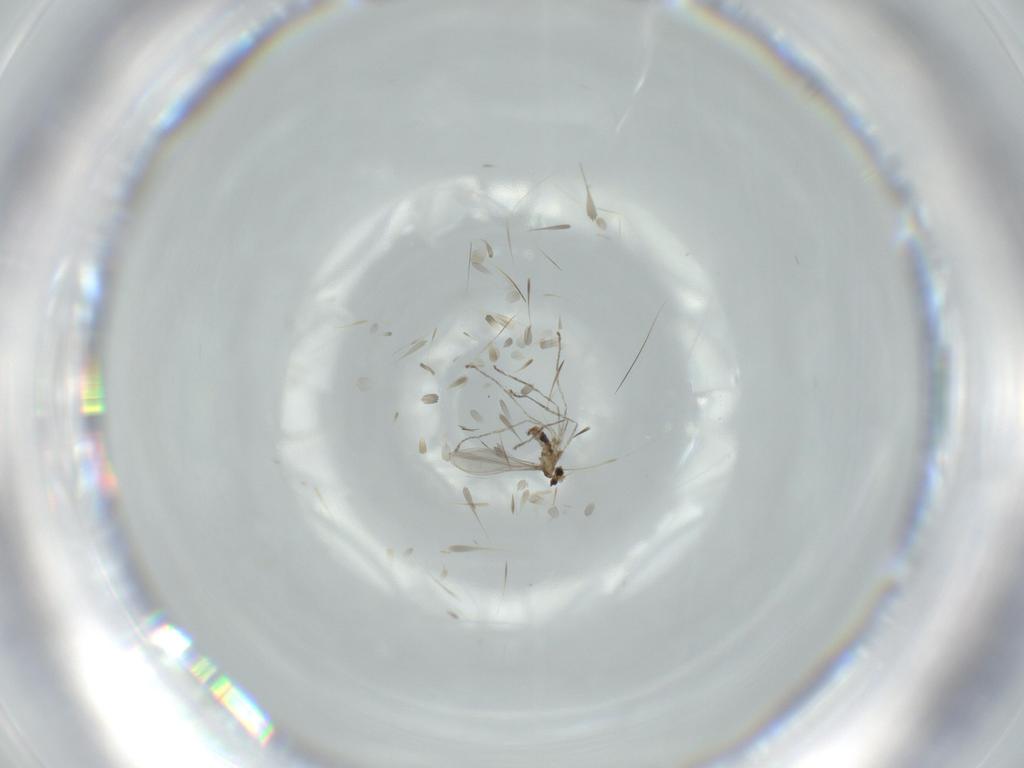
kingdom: Animalia
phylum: Arthropoda
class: Insecta
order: Diptera
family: Cecidomyiidae
